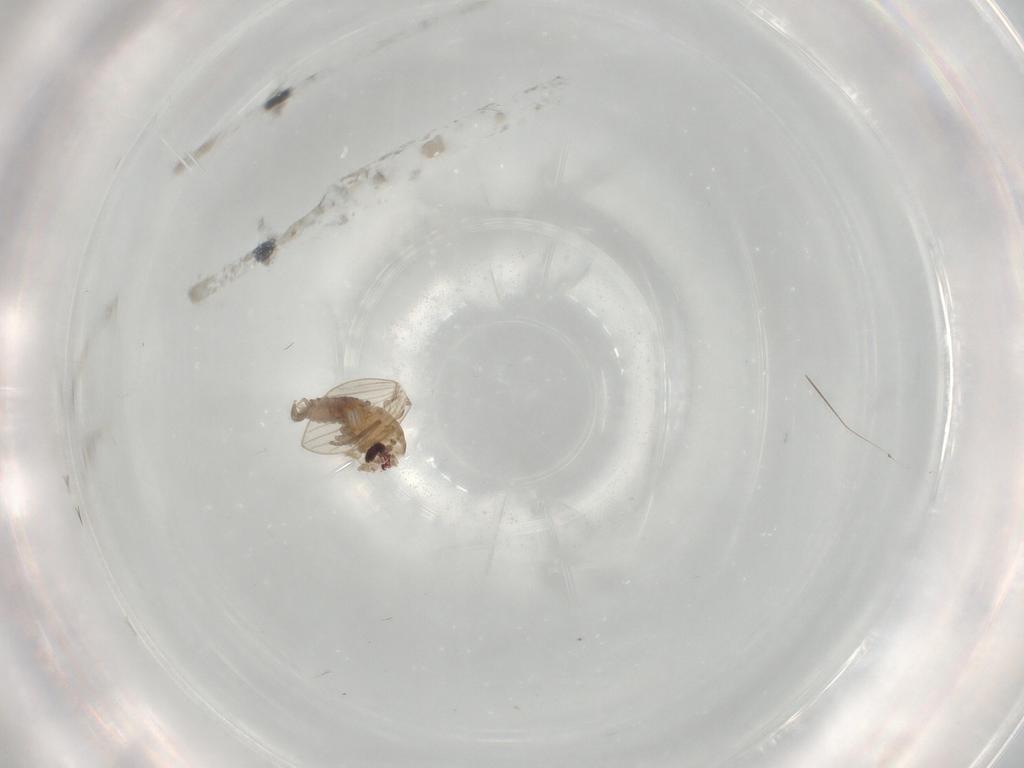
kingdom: Animalia
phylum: Arthropoda
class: Insecta
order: Diptera
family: Psychodidae
